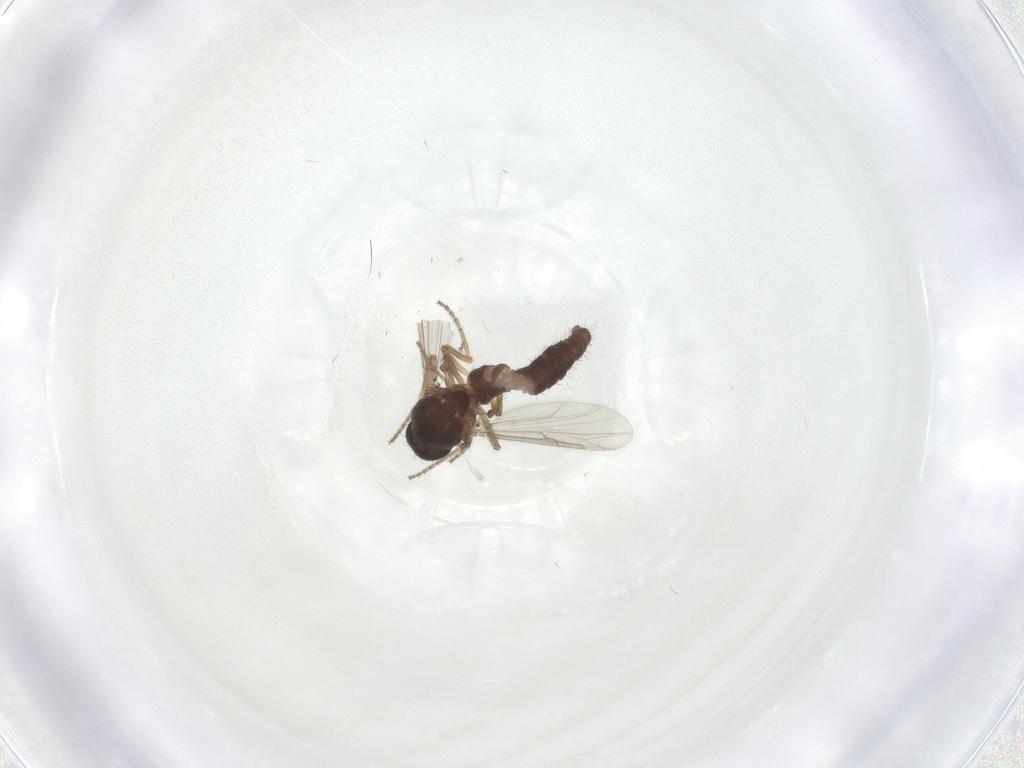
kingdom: Animalia
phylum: Arthropoda
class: Insecta
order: Diptera
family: Ceratopogonidae
